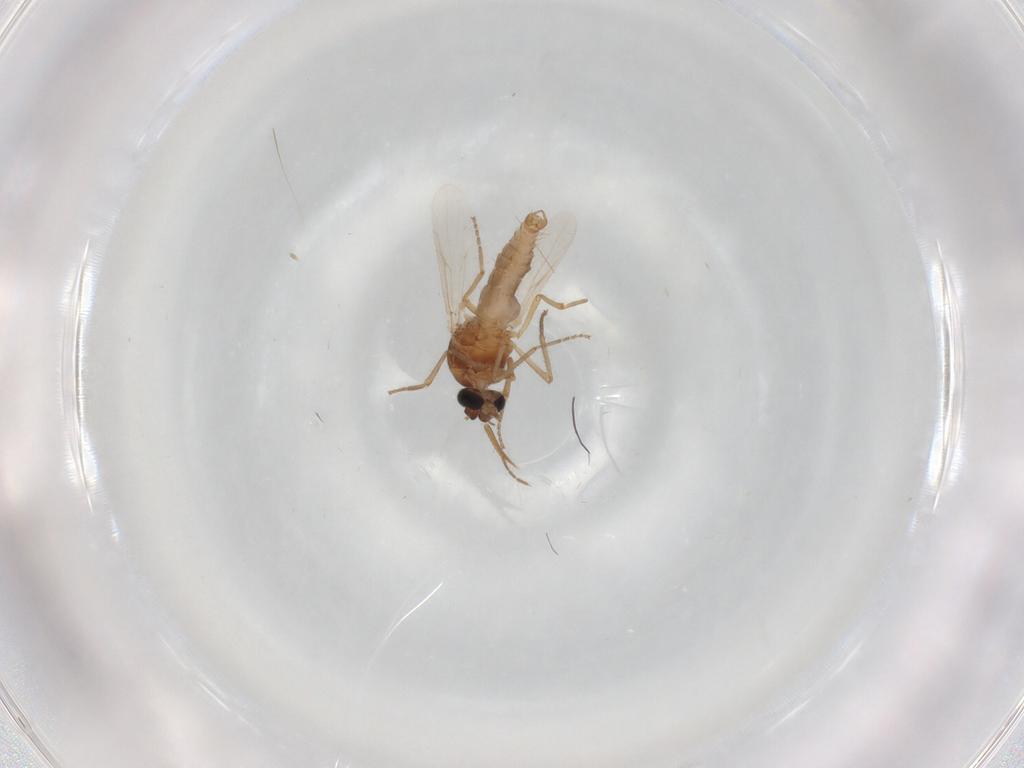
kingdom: Animalia
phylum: Arthropoda
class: Insecta
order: Diptera
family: Ceratopogonidae
